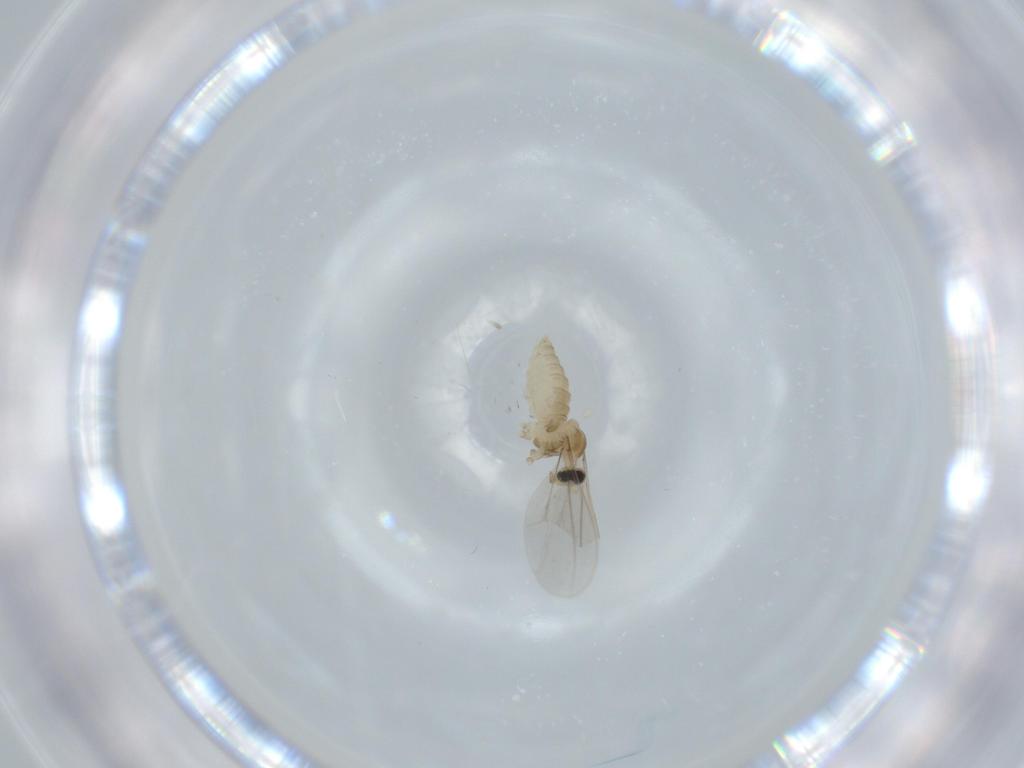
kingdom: Animalia
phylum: Arthropoda
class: Insecta
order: Diptera
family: Cecidomyiidae
